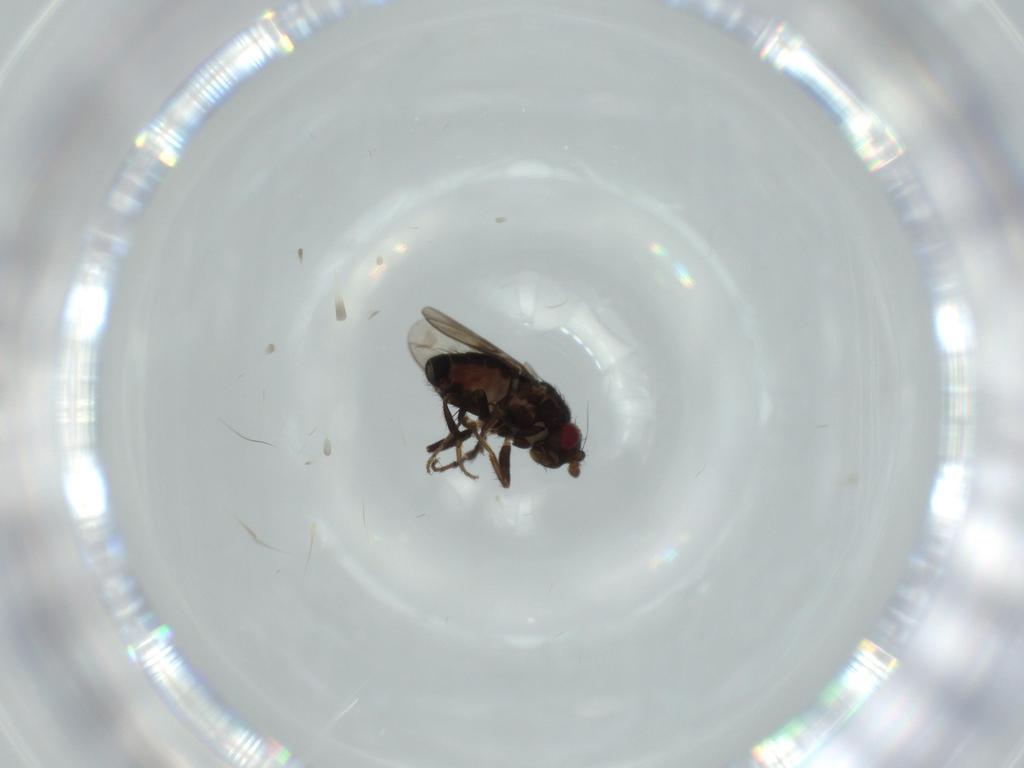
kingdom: Animalia
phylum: Arthropoda
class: Insecta
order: Diptera
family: Sphaeroceridae
